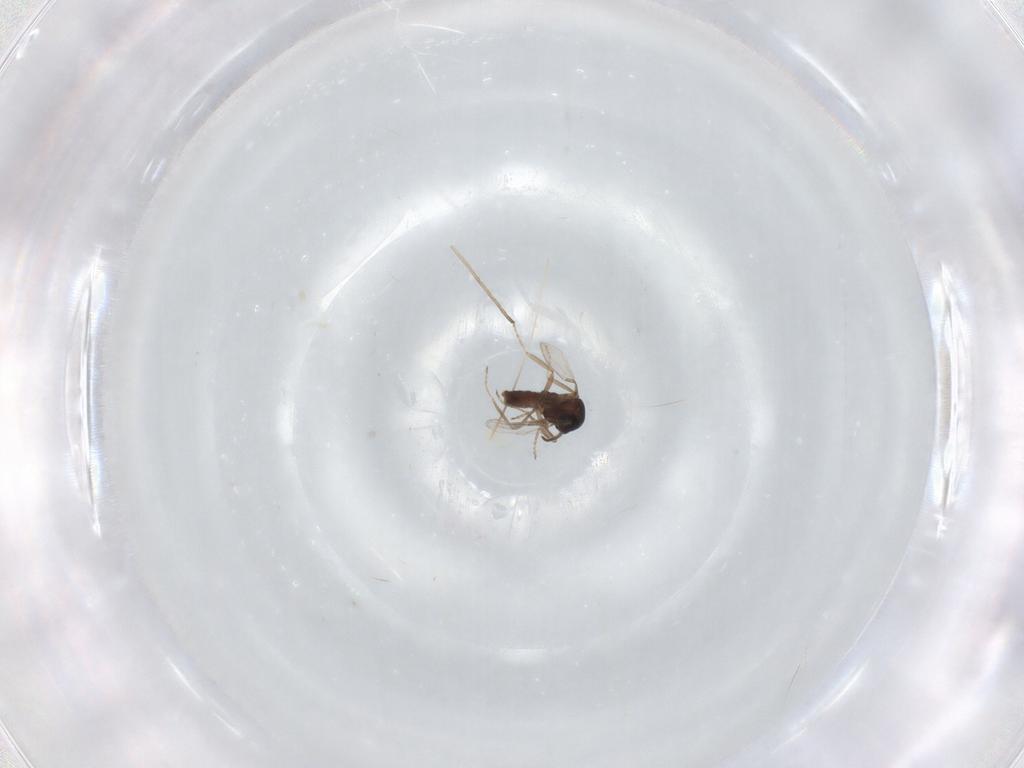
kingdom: Animalia
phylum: Arthropoda
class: Insecta
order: Diptera
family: Ceratopogonidae
